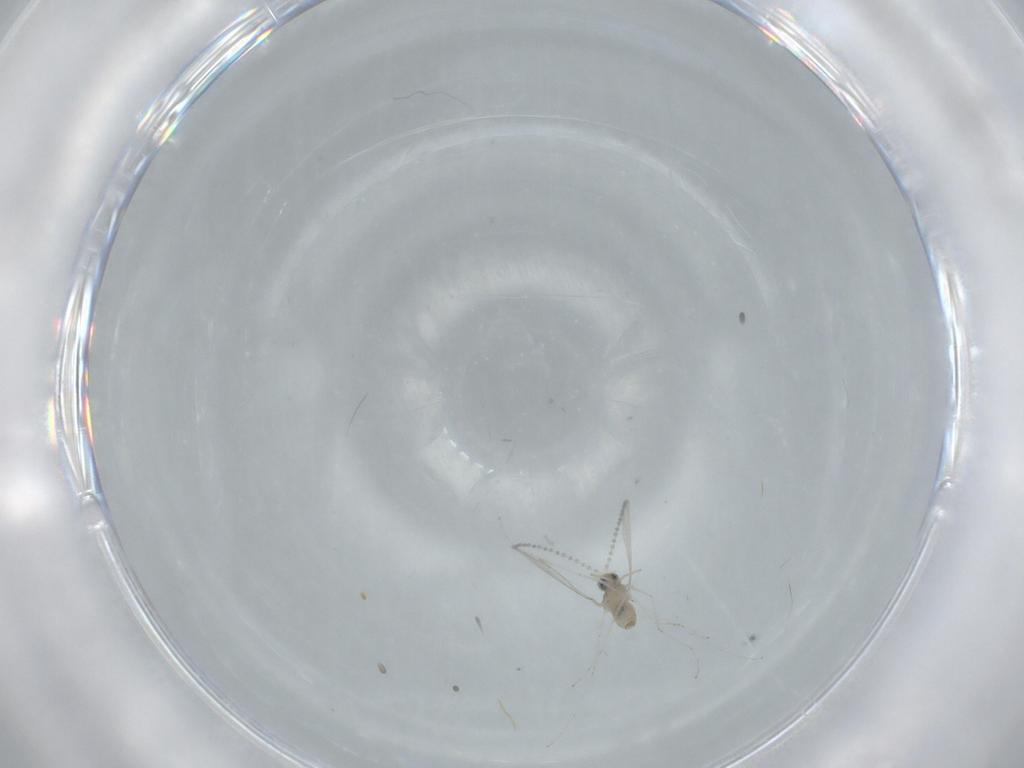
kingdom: Animalia
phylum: Arthropoda
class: Insecta
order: Diptera
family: Cecidomyiidae
